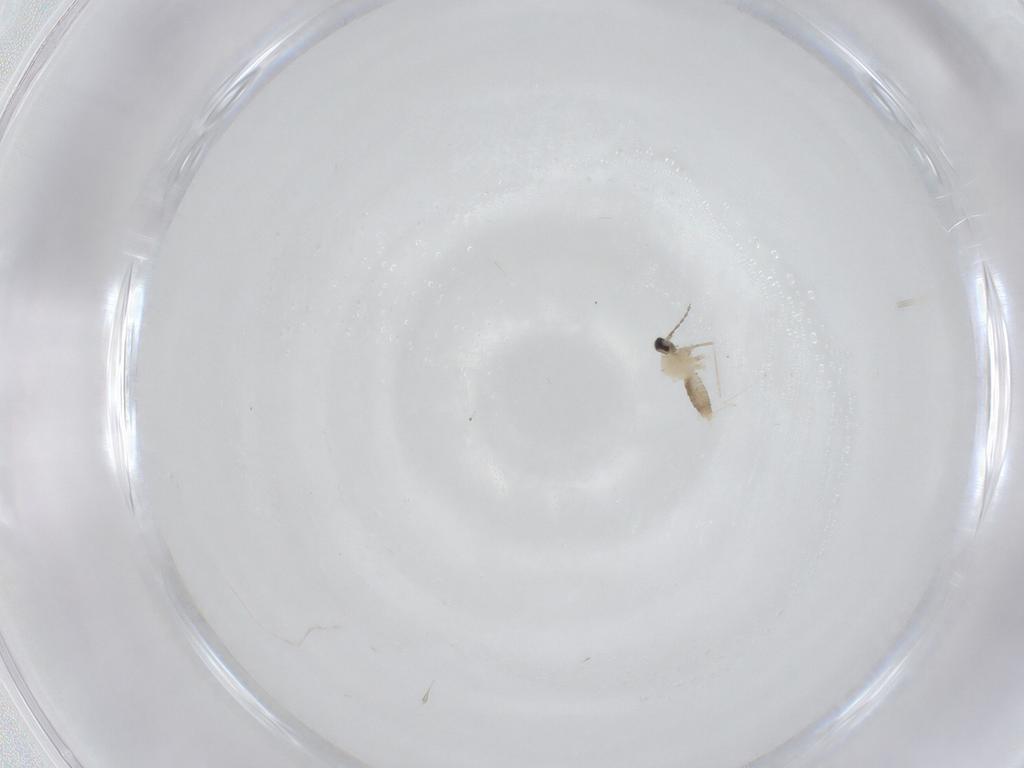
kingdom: Animalia
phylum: Arthropoda
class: Insecta
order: Diptera
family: Cecidomyiidae
